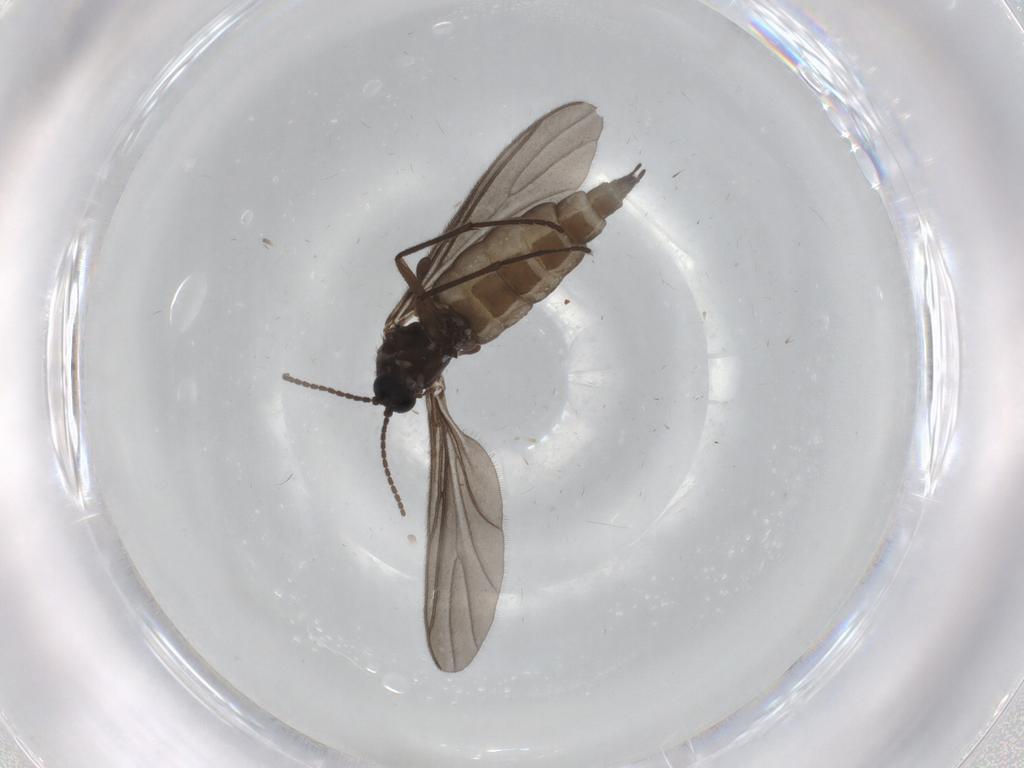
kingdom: Animalia
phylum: Arthropoda
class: Insecta
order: Diptera
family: Sciaridae
